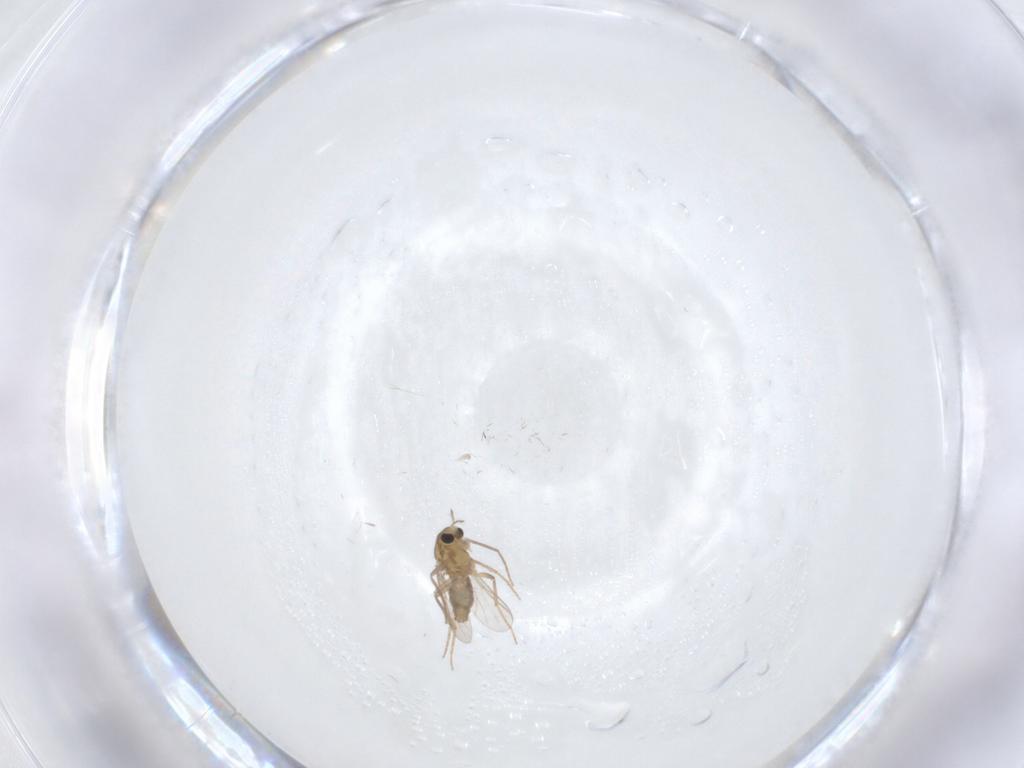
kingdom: Animalia
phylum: Arthropoda
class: Insecta
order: Diptera
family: Chironomidae
